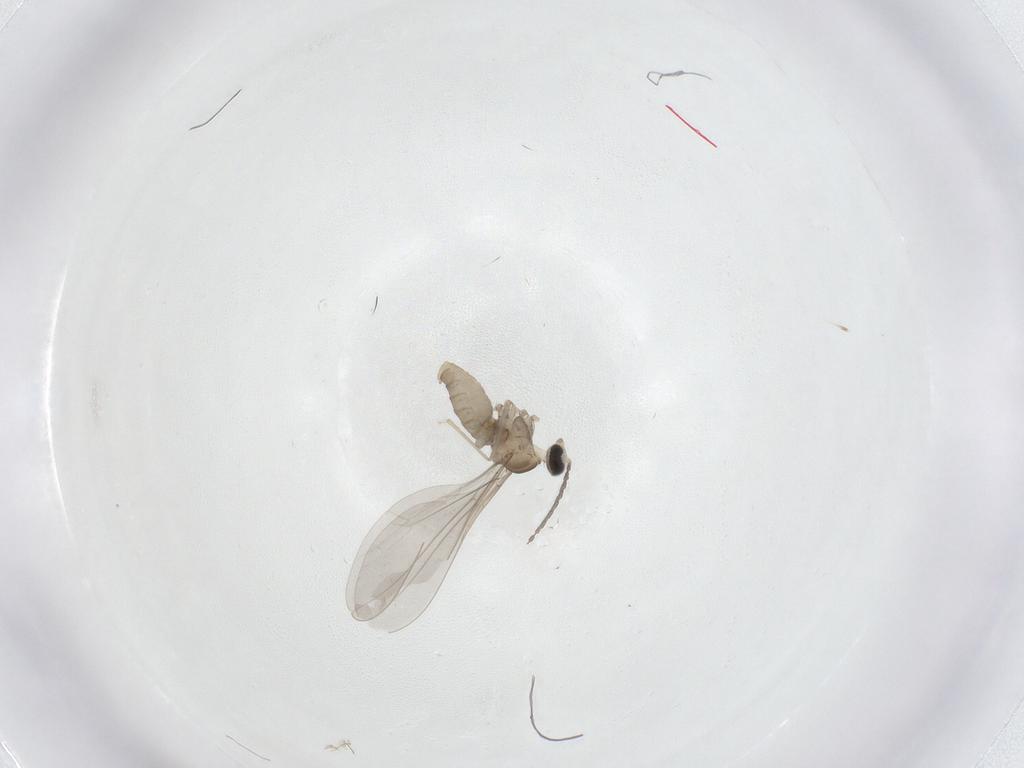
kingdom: Animalia
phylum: Arthropoda
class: Insecta
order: Diptera
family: Cecidomyiidae
